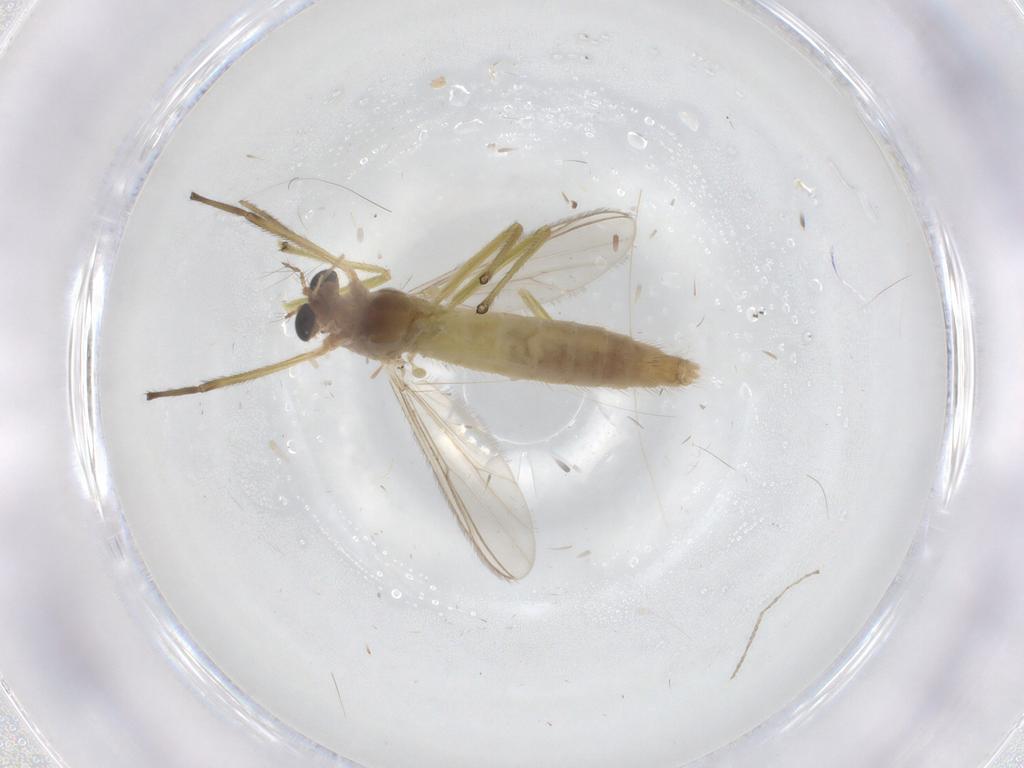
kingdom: Animalia
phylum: Arthropoda
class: Insecta
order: Diptera
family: Chironomidae
